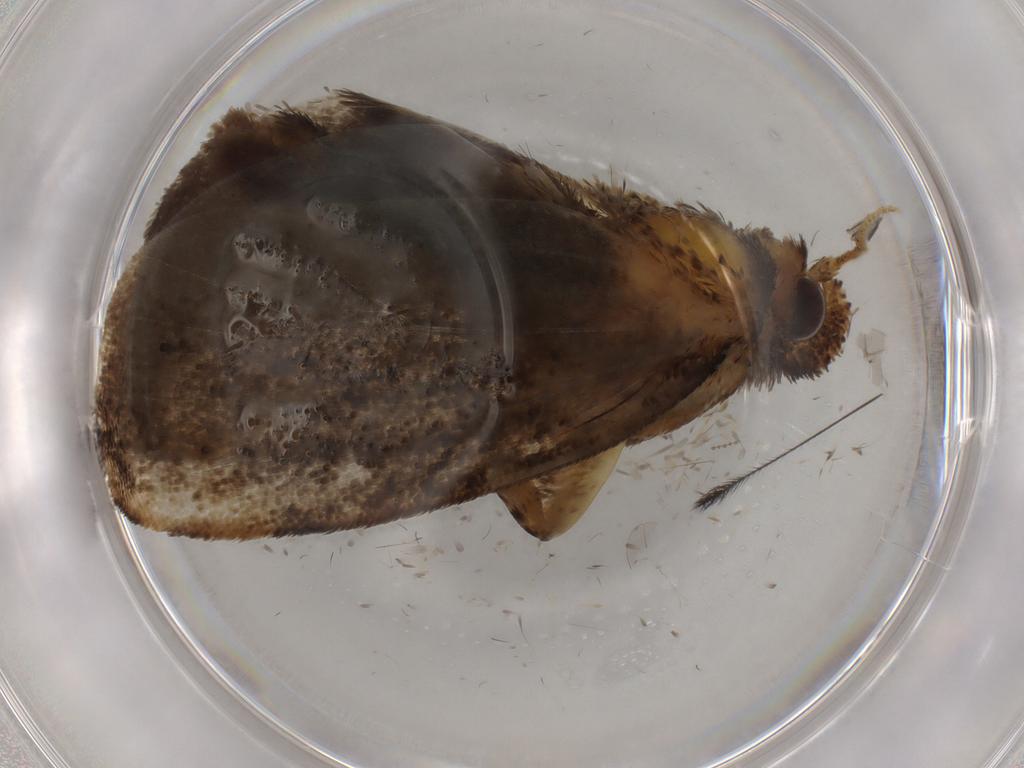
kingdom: Animalia
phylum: Arthropoda
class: Insecta
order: Lepidoptera
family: Tineidae
